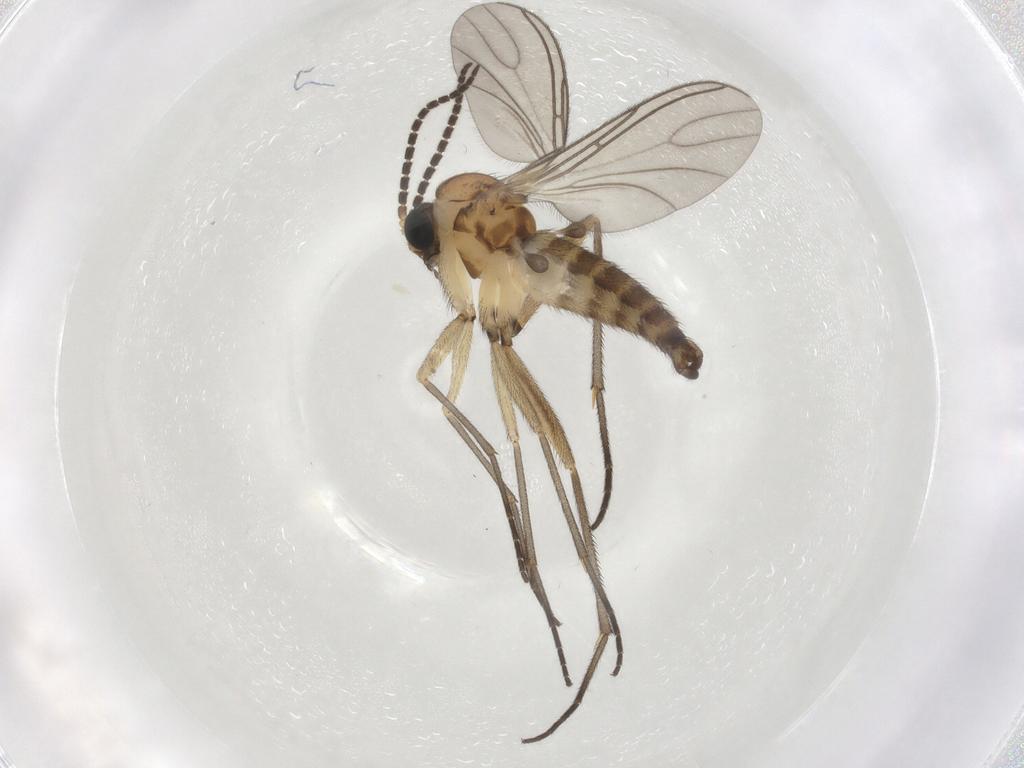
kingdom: Animalia
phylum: Arthropoda
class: Insecta
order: Diptera
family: Sciaridae
